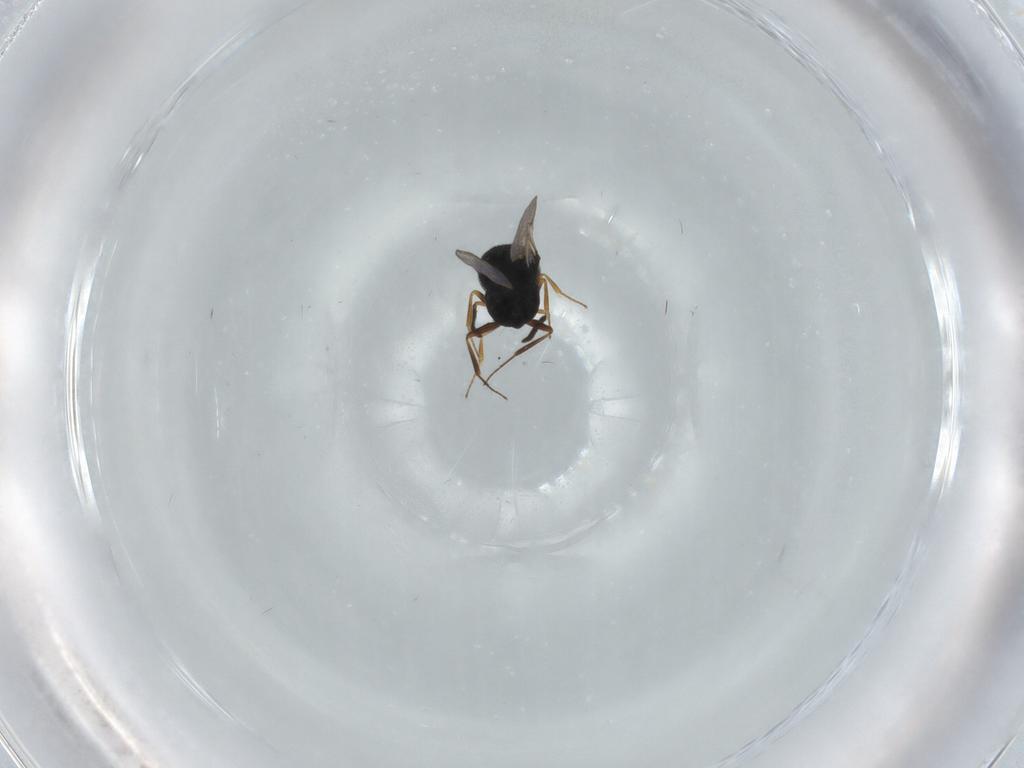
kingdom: Animalia
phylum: Arthropoda
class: Insecta
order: Hymenoptera
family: Scelionidae
